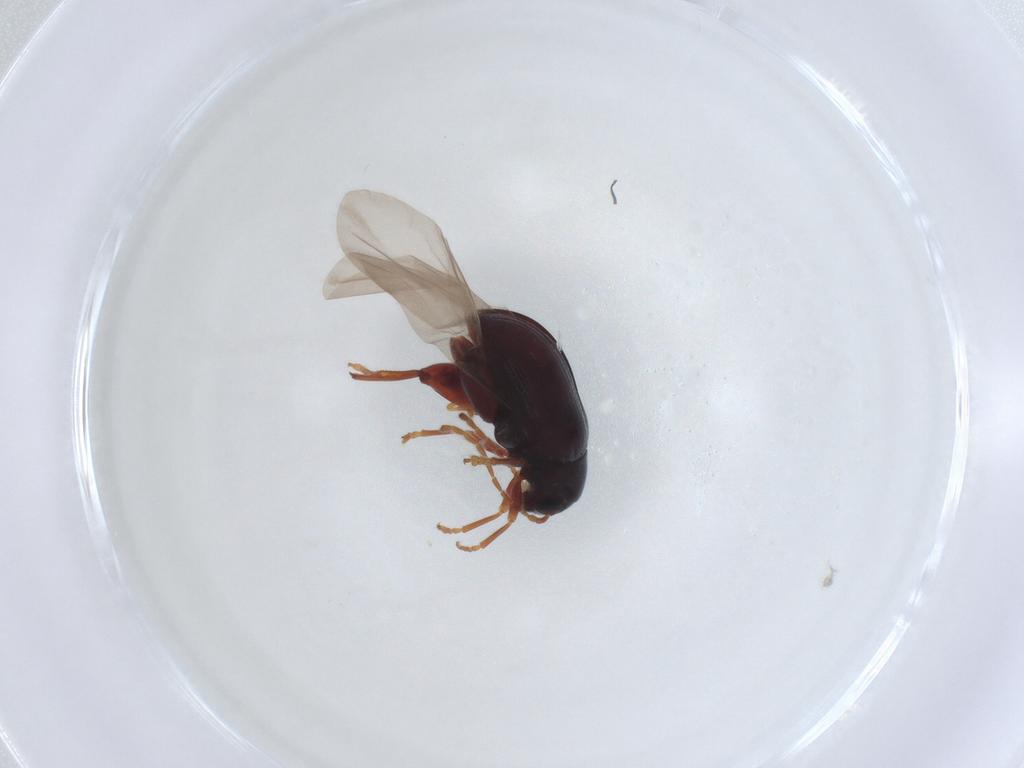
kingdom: Animalia
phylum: Arthropoda
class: Insecta
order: Coleoptera
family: Chrysomelidae
